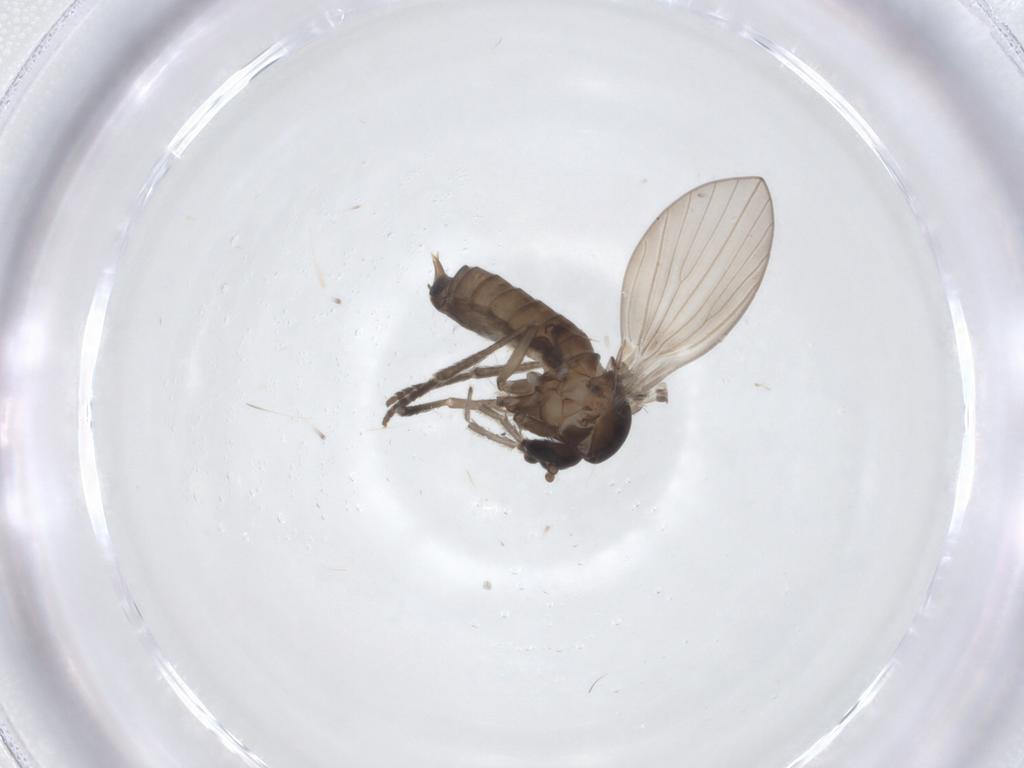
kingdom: Animalia
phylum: Arthropoda
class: Insecta
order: Diptera
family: Psychodidae
